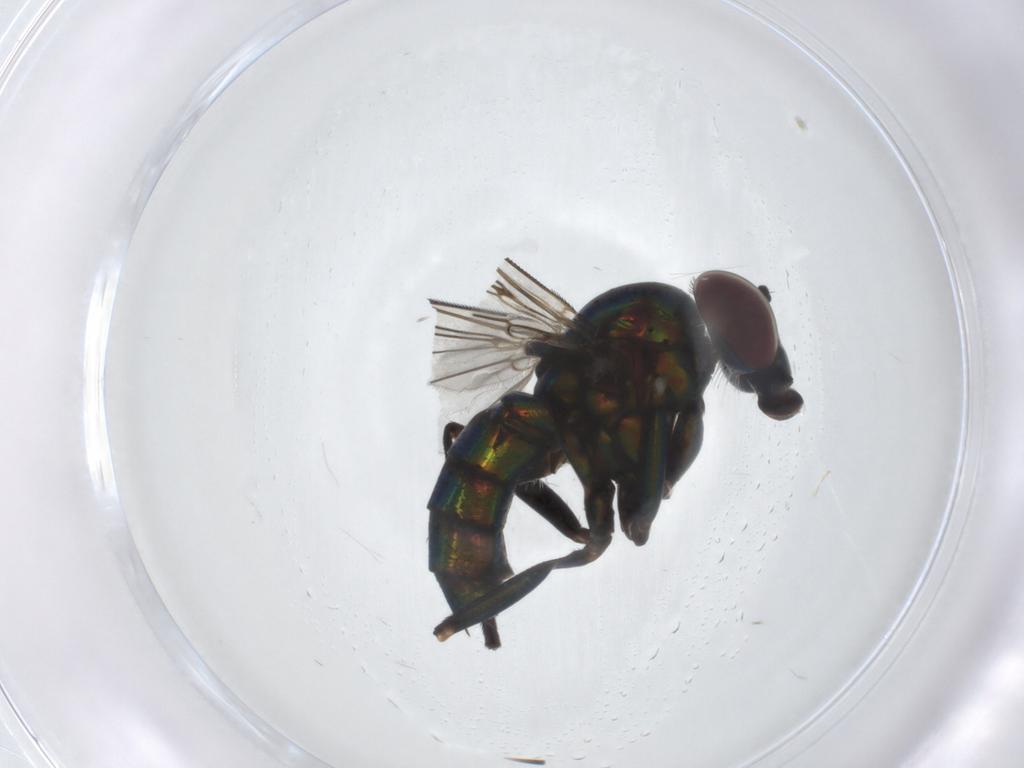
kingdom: Animalia
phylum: Arthropoda
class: Insecta
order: Diptera
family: Dolichopodidae
